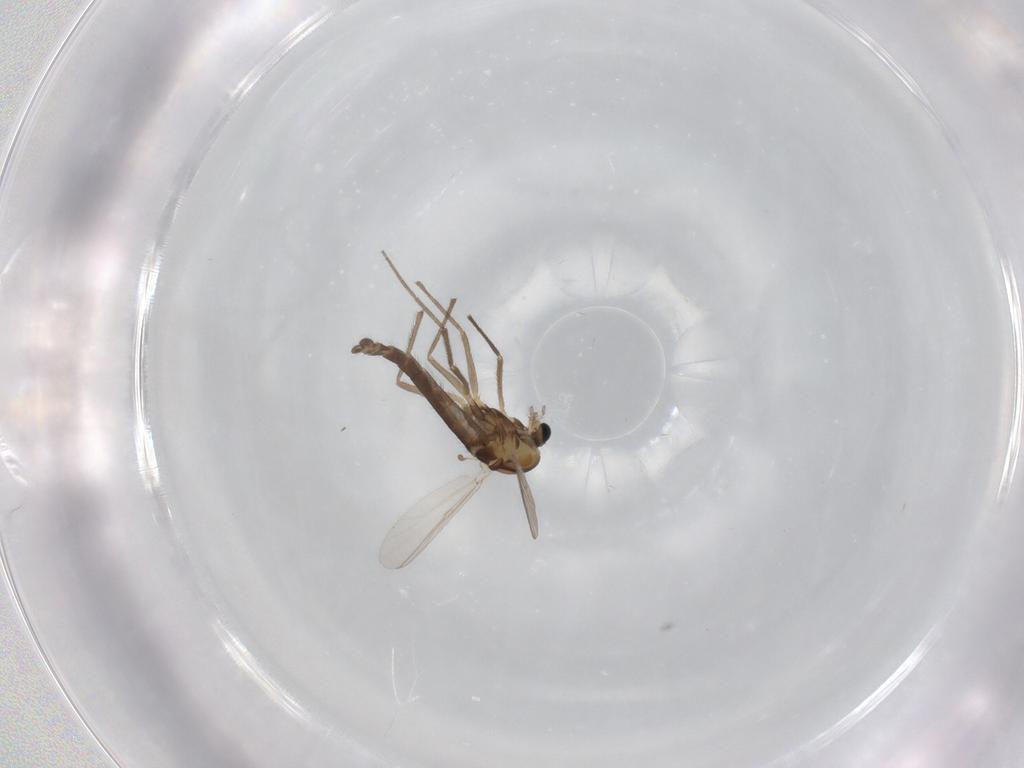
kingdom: Animalia
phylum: Arthropoda
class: Insecta
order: Diptera
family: Chironomidae
